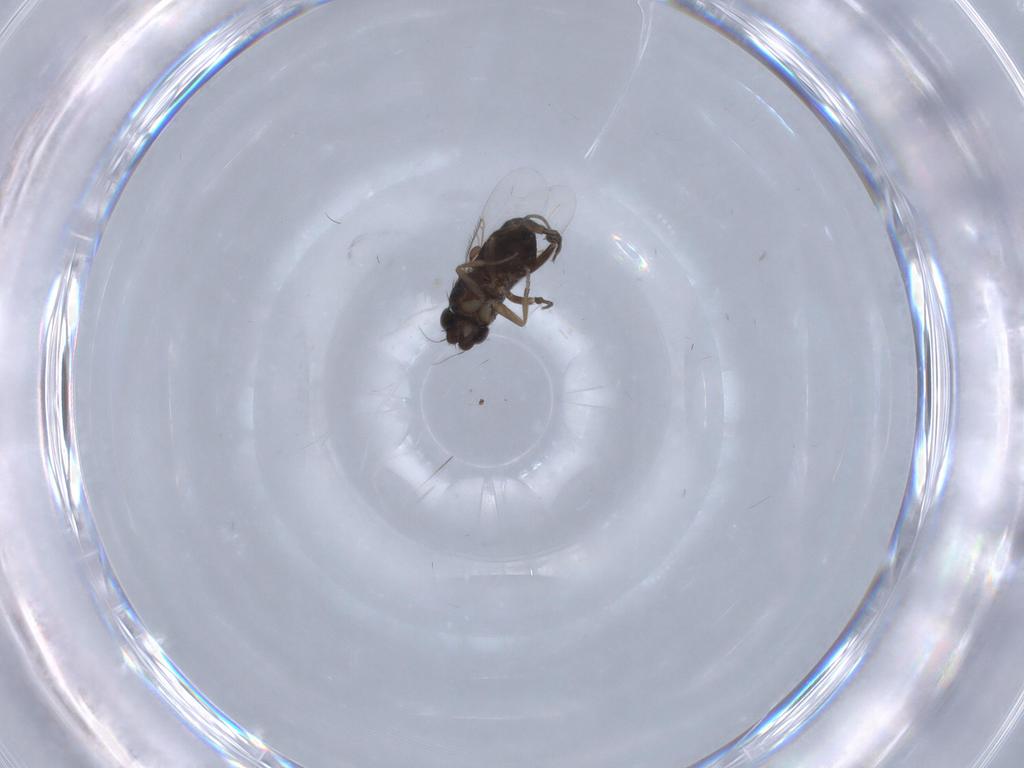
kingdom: Animalia
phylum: Arthropoda
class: Insecta
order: Diptera
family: Phoridae
